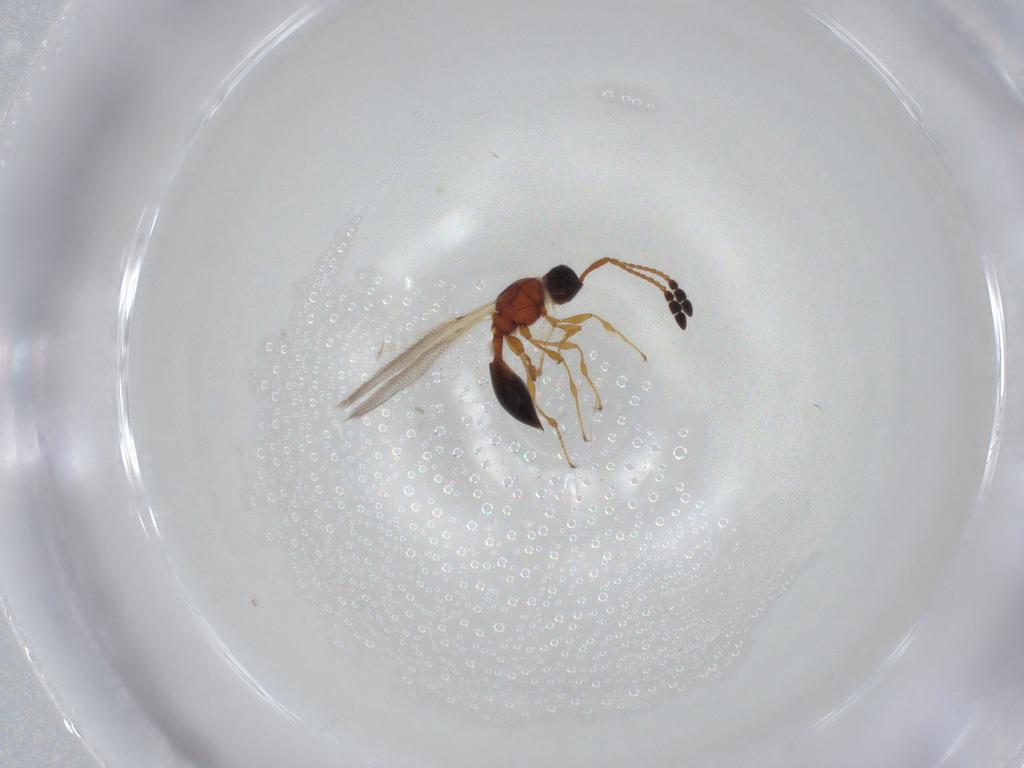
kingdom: Animalia
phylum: Arthropoda
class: Insecta
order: Hymenoptera
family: Diapriidae
